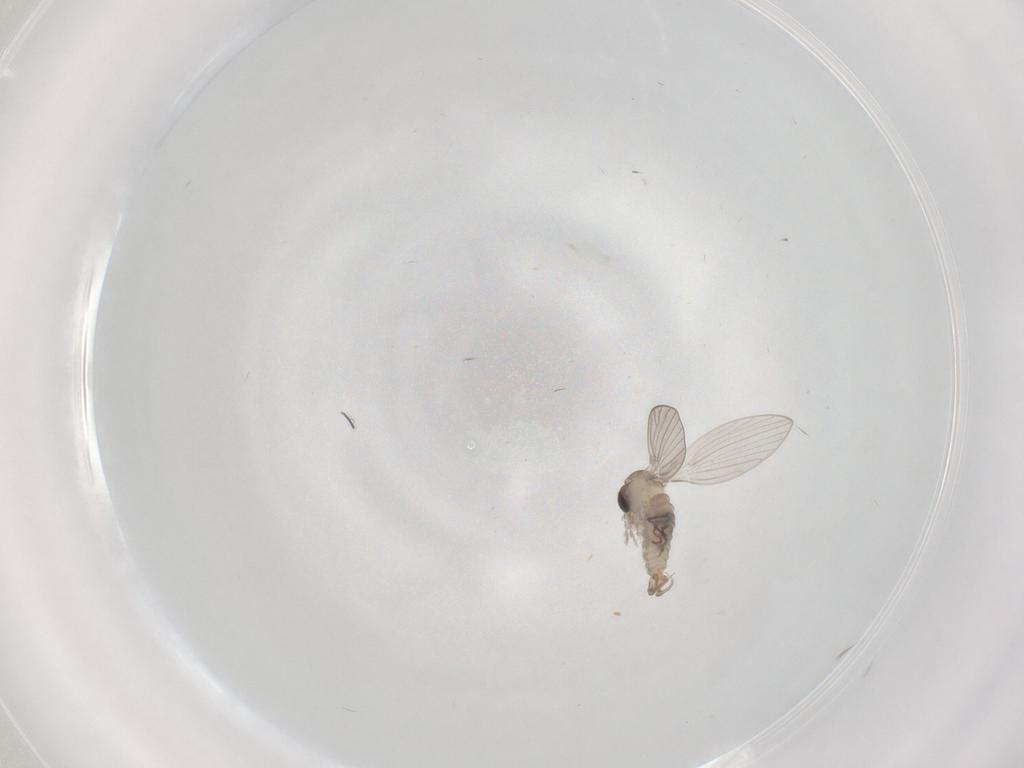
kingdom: Animalia
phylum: Arthropoda
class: Insecta
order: Diptera
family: Psychodidae
